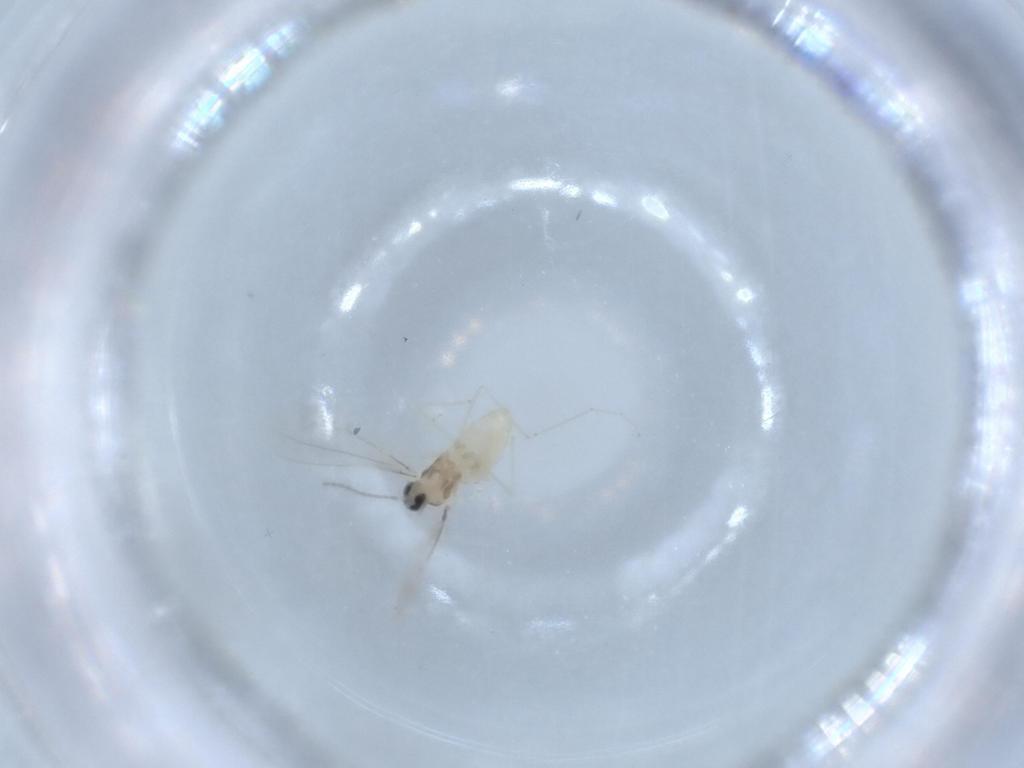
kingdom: Animalia
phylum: Arthropoda
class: Insecta
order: Diptera
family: Cecidomyiidae
